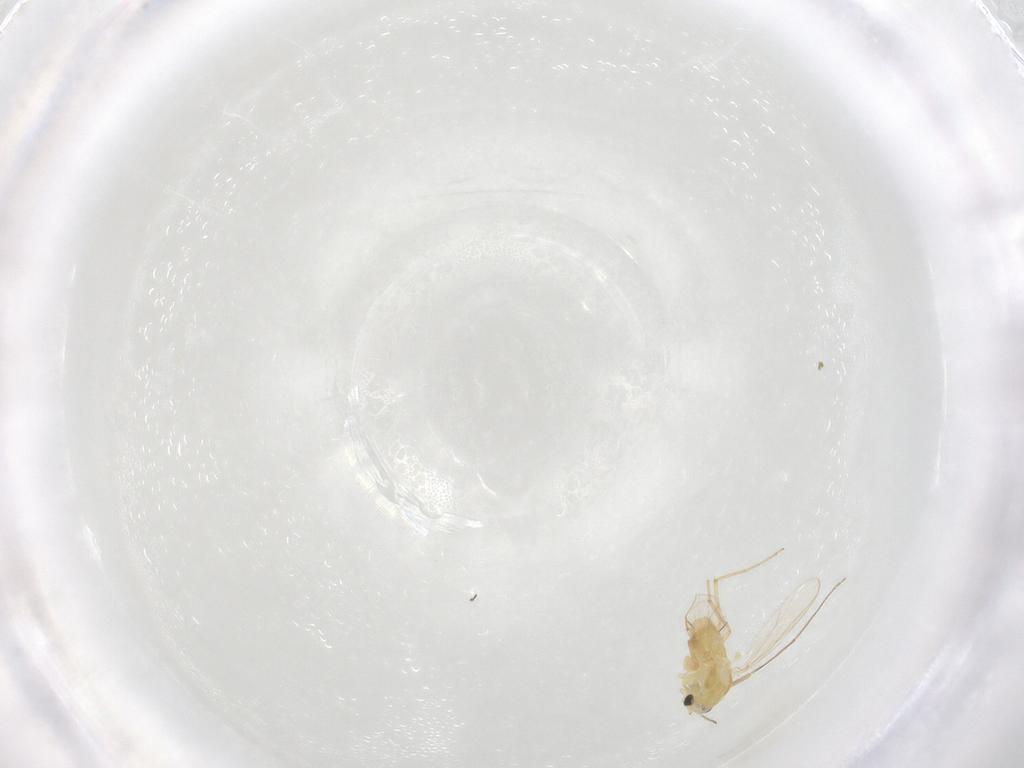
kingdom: Animalia
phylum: Arthropoda
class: Insecta
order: Diptera
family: Chironomidae
